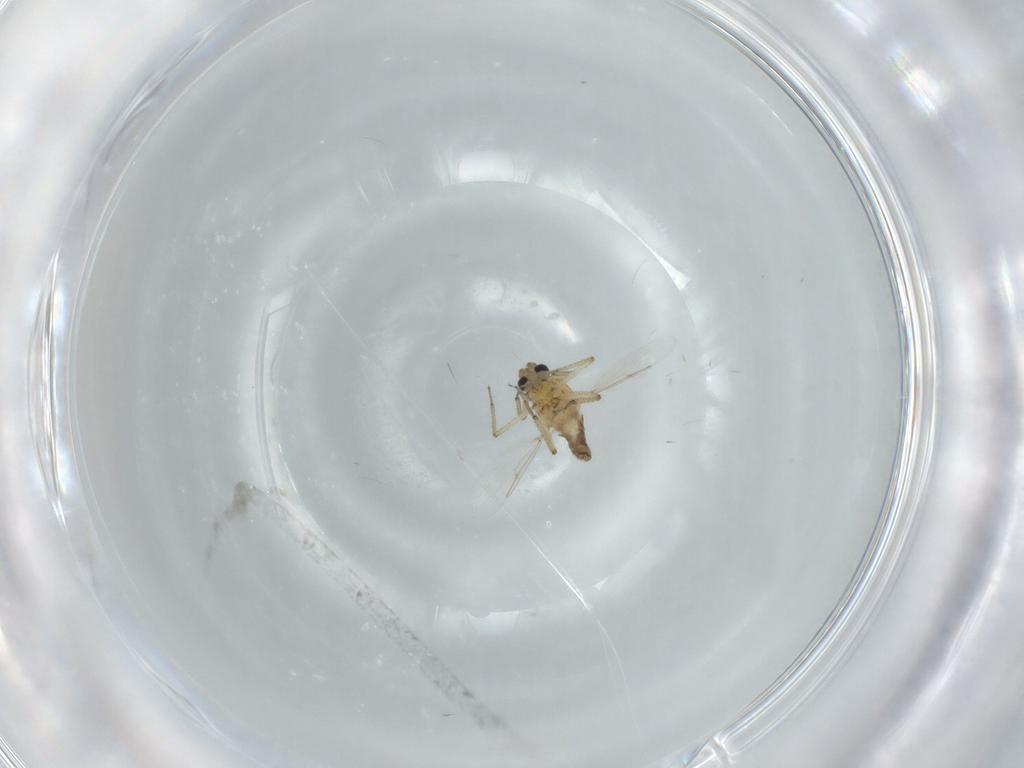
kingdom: Animalia
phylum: Arthropoda
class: Insecta
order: Diptera
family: Ceratopogonidae
